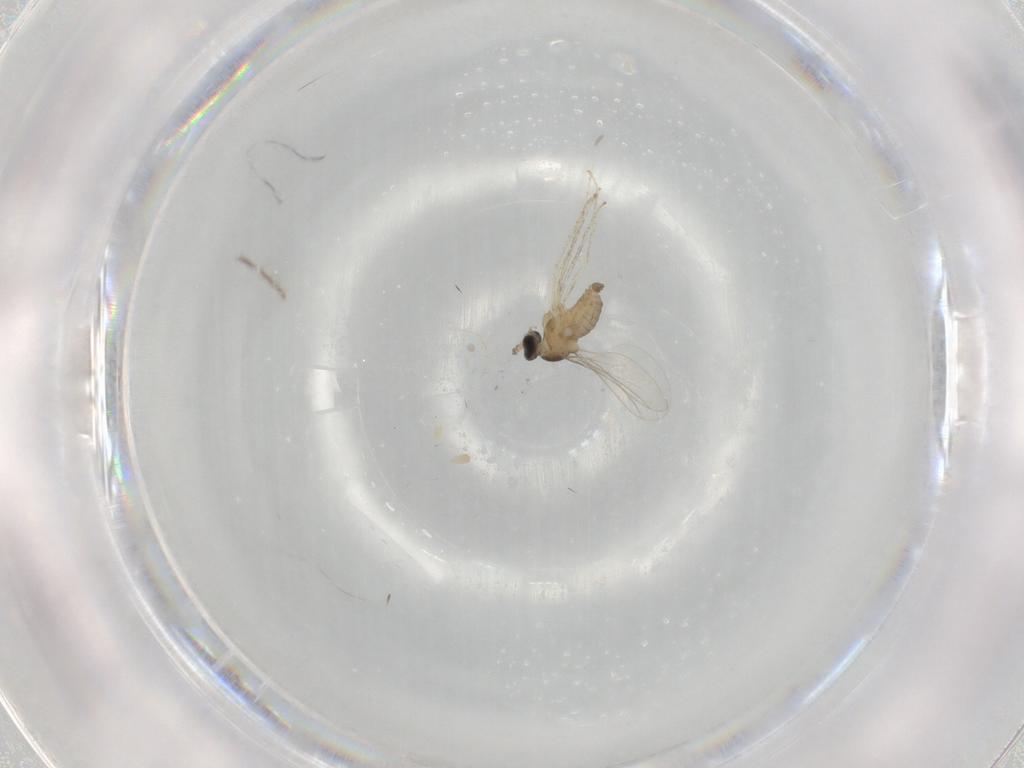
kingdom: Animalia
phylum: Arthropoda
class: Insecta
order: Diptera
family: Cecidomyiidae
